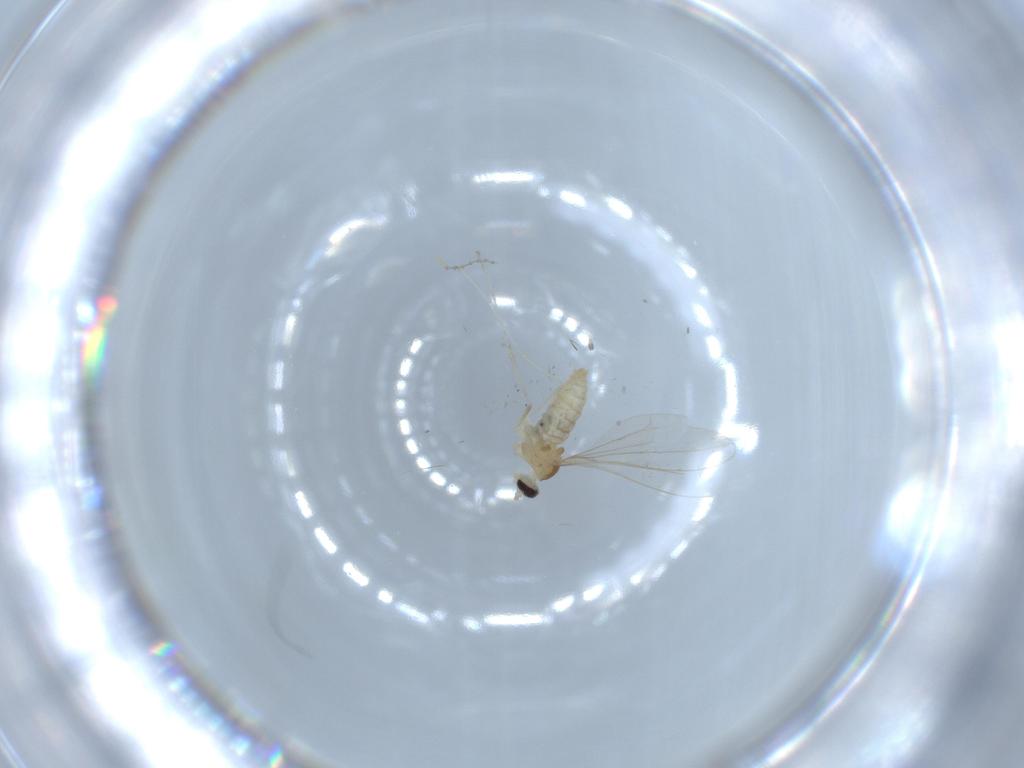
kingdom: Animalia
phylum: Arthropoda
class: Insecta
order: Diptera
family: Cecidomyiidae
